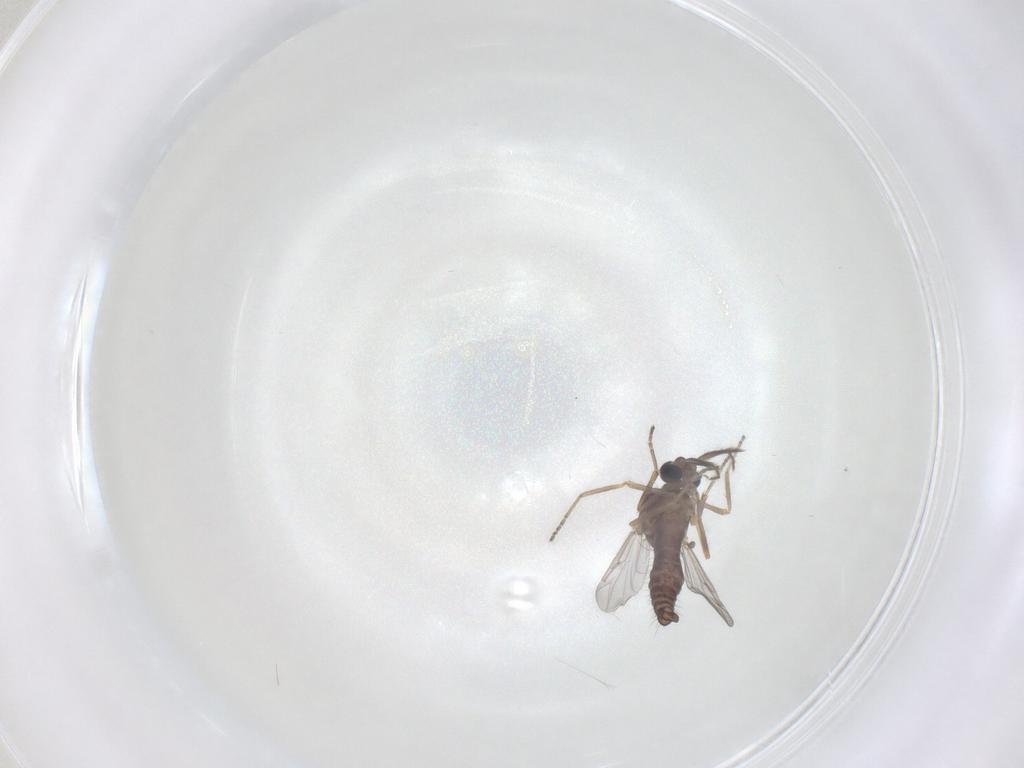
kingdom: Animalia
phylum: Arthropoda
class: Insecta
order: Diptera
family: Ceratopogonidae
